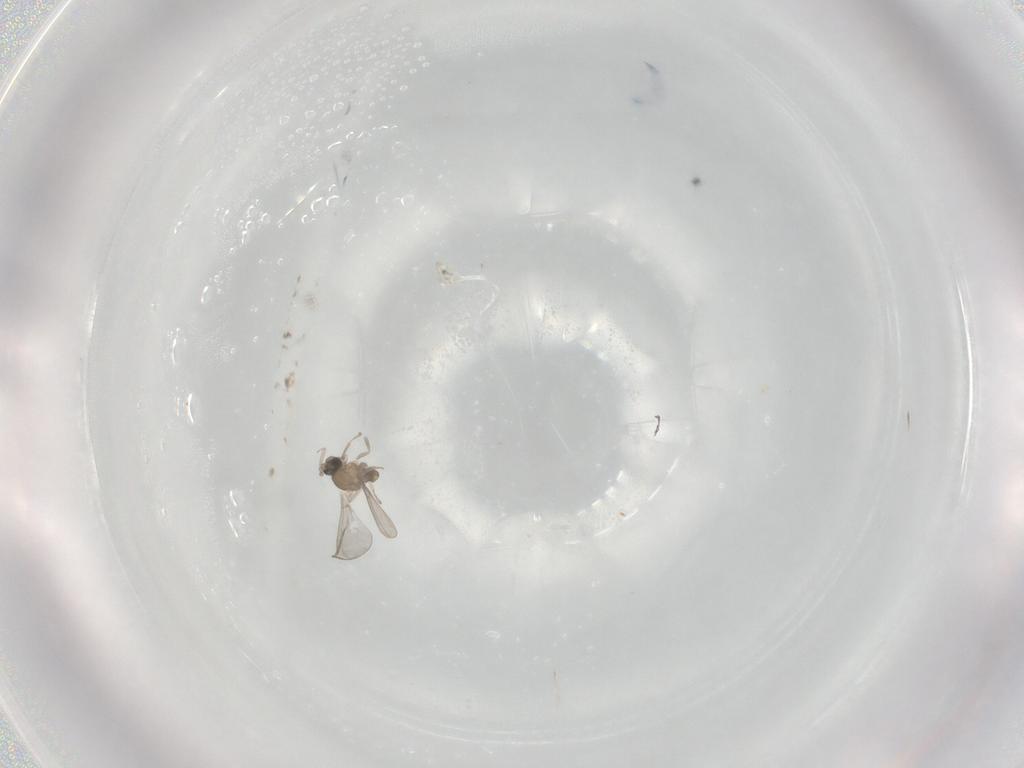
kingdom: Animalia
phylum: Arthropoda
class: Insecta
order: Diptera
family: Cecidomyiidae
